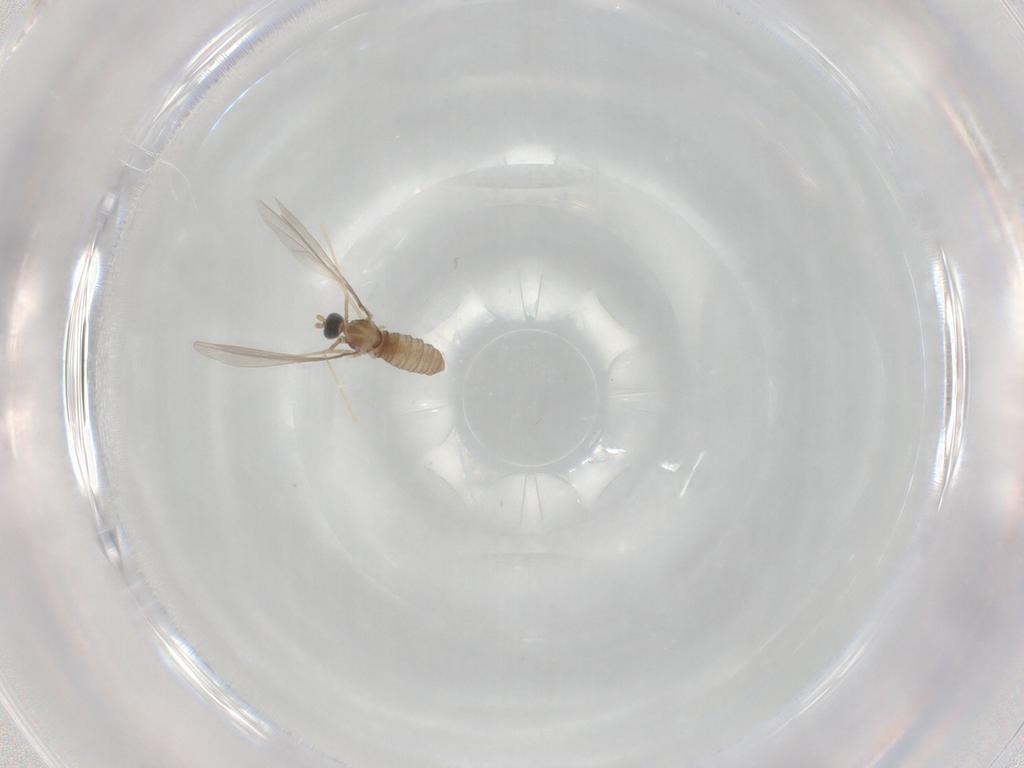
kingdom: Animalia
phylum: Arthropoda
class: Insecta
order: Diptera
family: Cecidomyiidae
